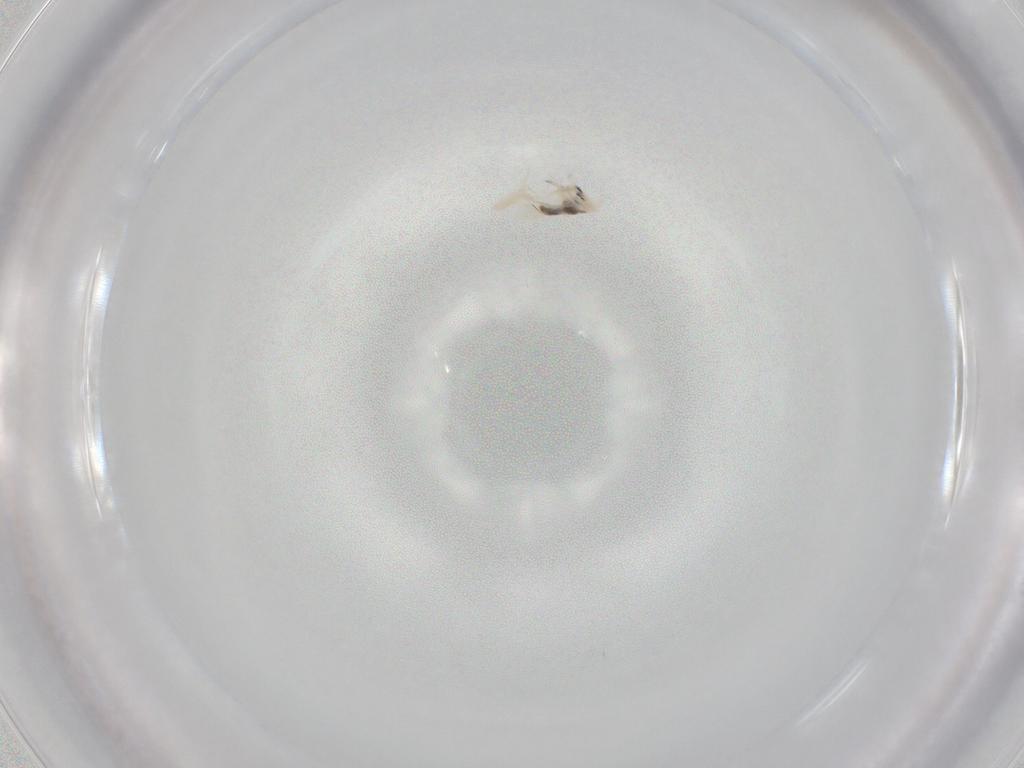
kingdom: Animalia
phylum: Arthropoda
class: Collembola
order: Entomobryomorpha
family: Entomobryidae
